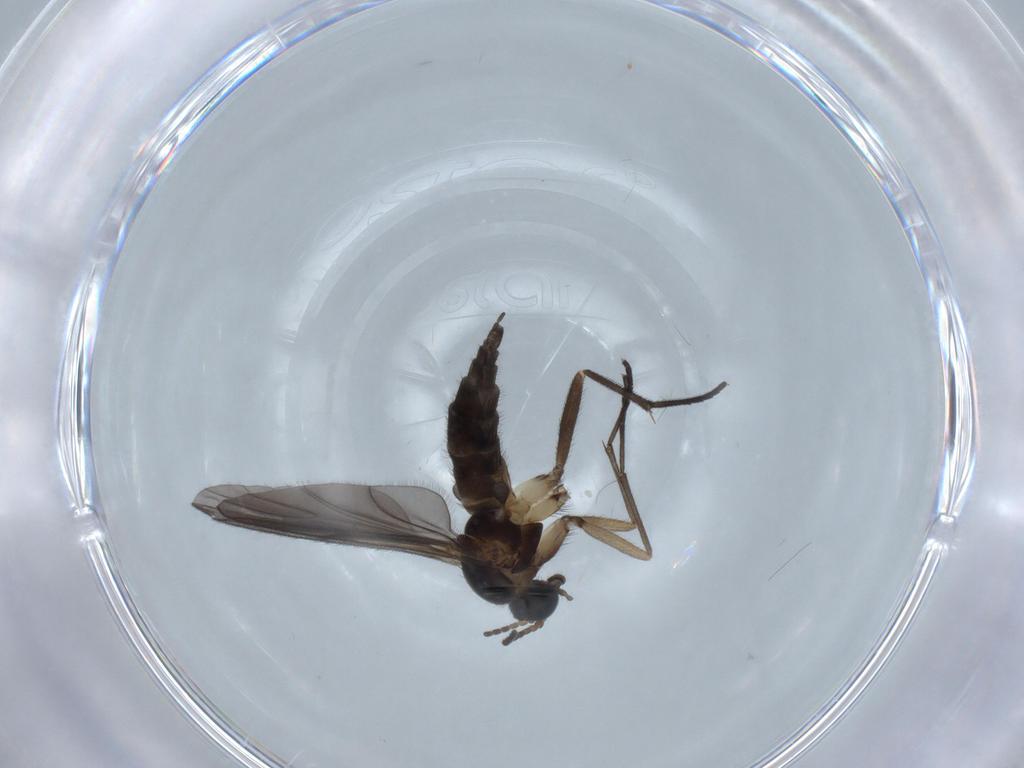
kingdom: Animalia
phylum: Arthropoda
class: Insecta
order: Diptera
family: Sciaridae
